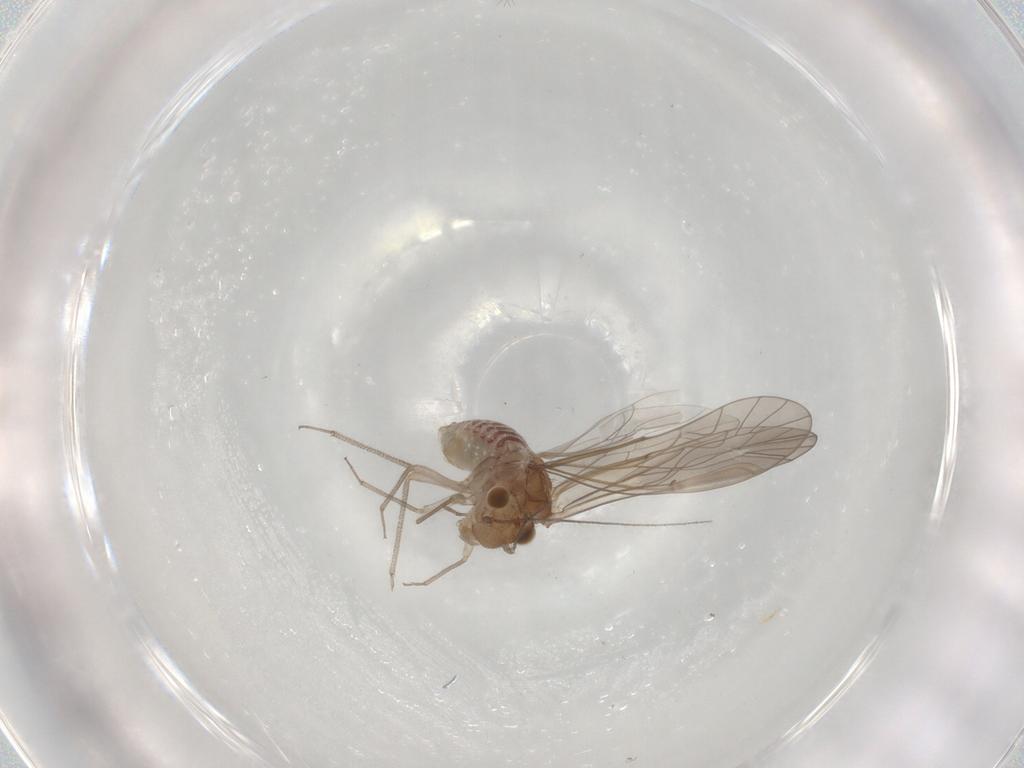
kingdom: Animalia
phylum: Arthropoda
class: Insecta
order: Psocodea
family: Lachesillidae
